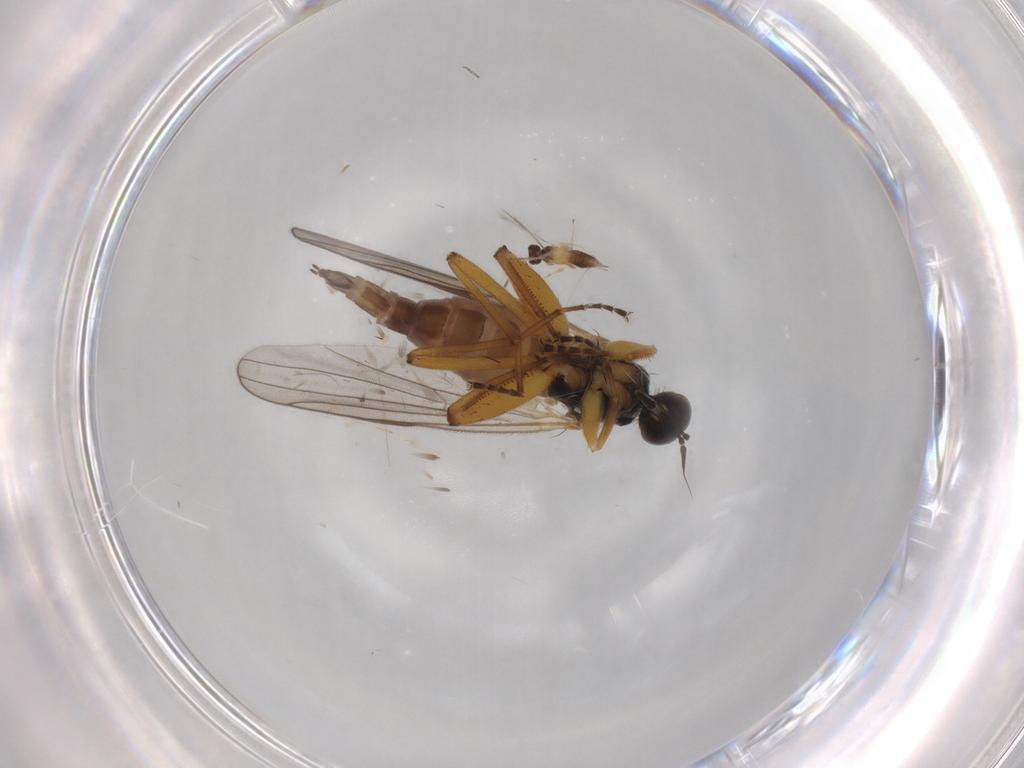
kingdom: Animalia
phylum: Arthropoda
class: Insecta
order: Diptera
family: Hybotidae
